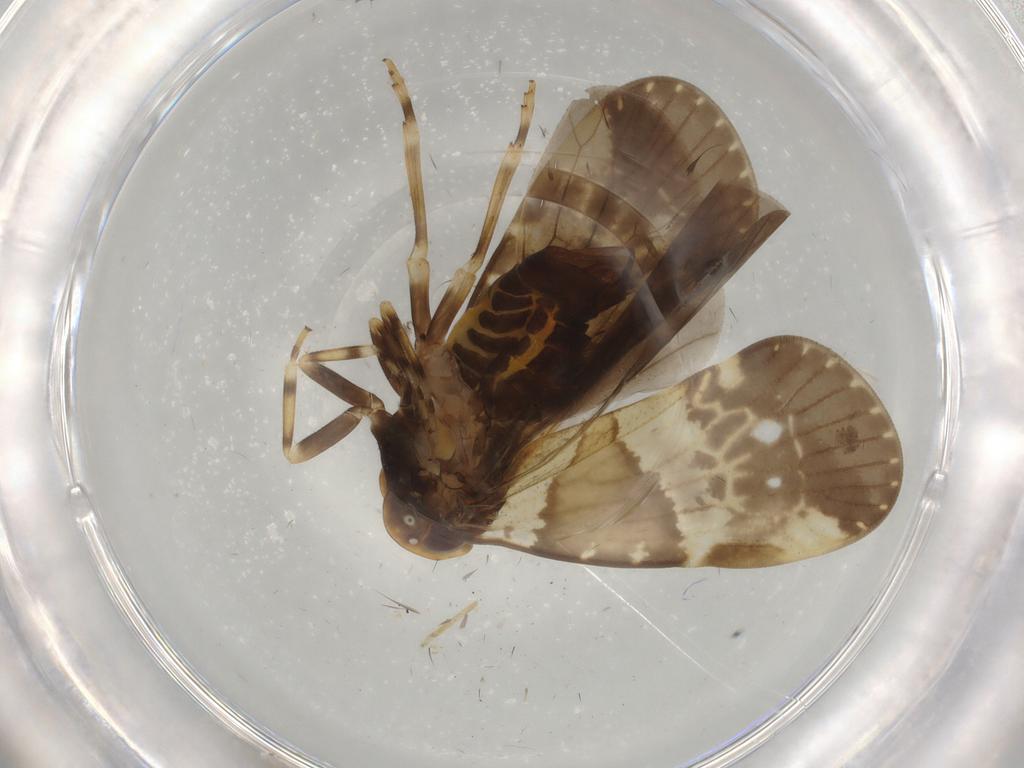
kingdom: Animalia
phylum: Arthropoda
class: Insecta
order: Hemiptera
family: Cixiidae
